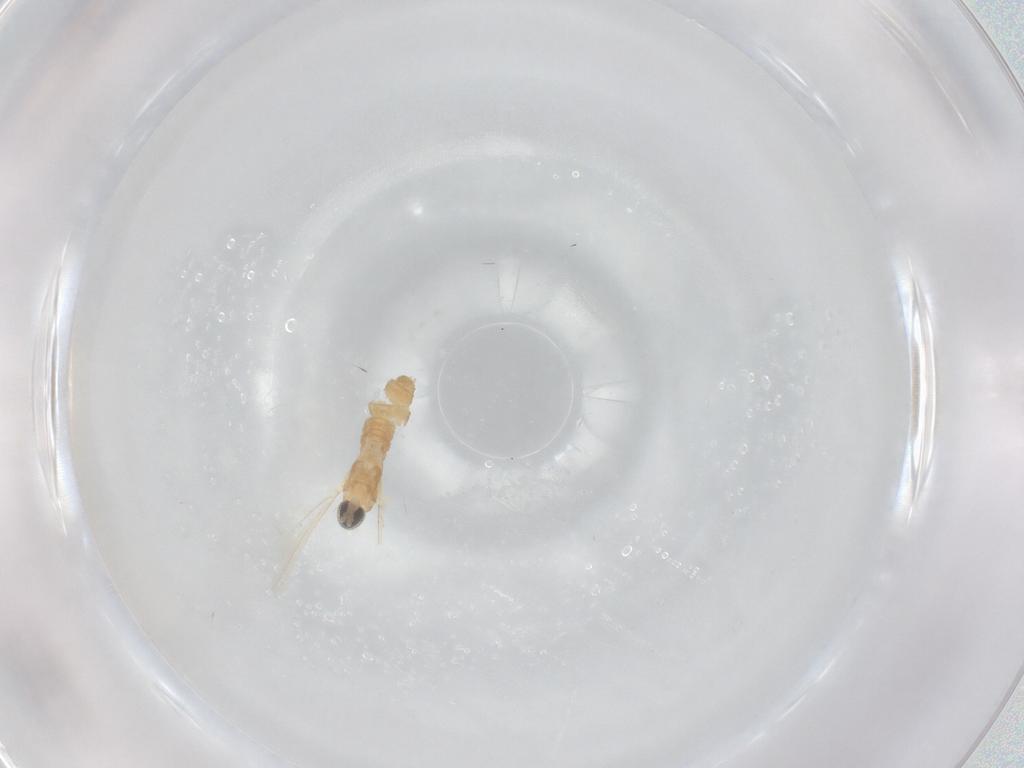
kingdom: Animalia
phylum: Arthropoda
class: Insecta
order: Diptera
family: Cecidomyiidae
